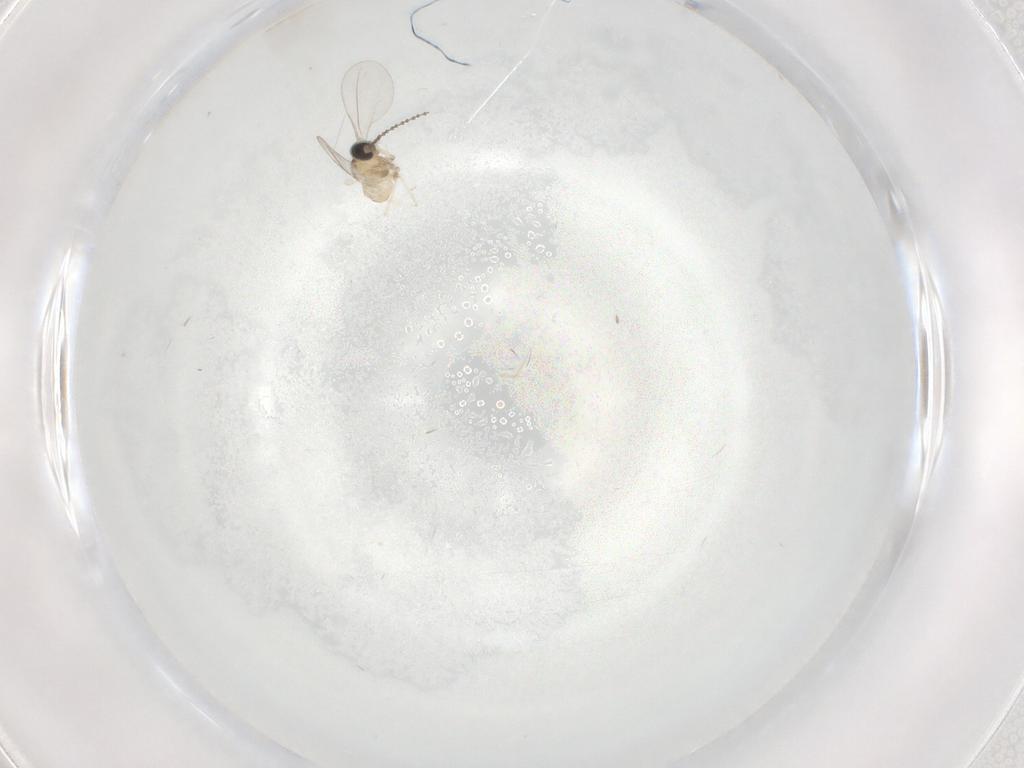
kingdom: Animalia
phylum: Arthropoda
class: Insecta
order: Diptera
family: Cecidomyiidae
